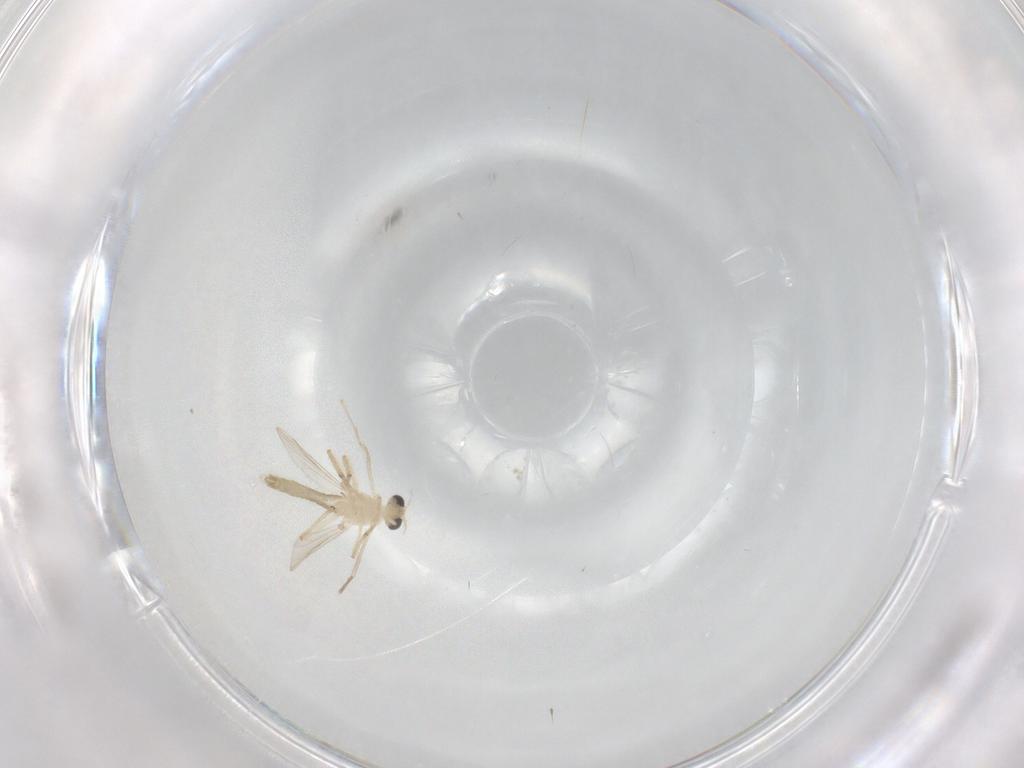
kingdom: Animalia
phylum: Arthropoda
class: Insecta
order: Diptera
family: Chironomidae
